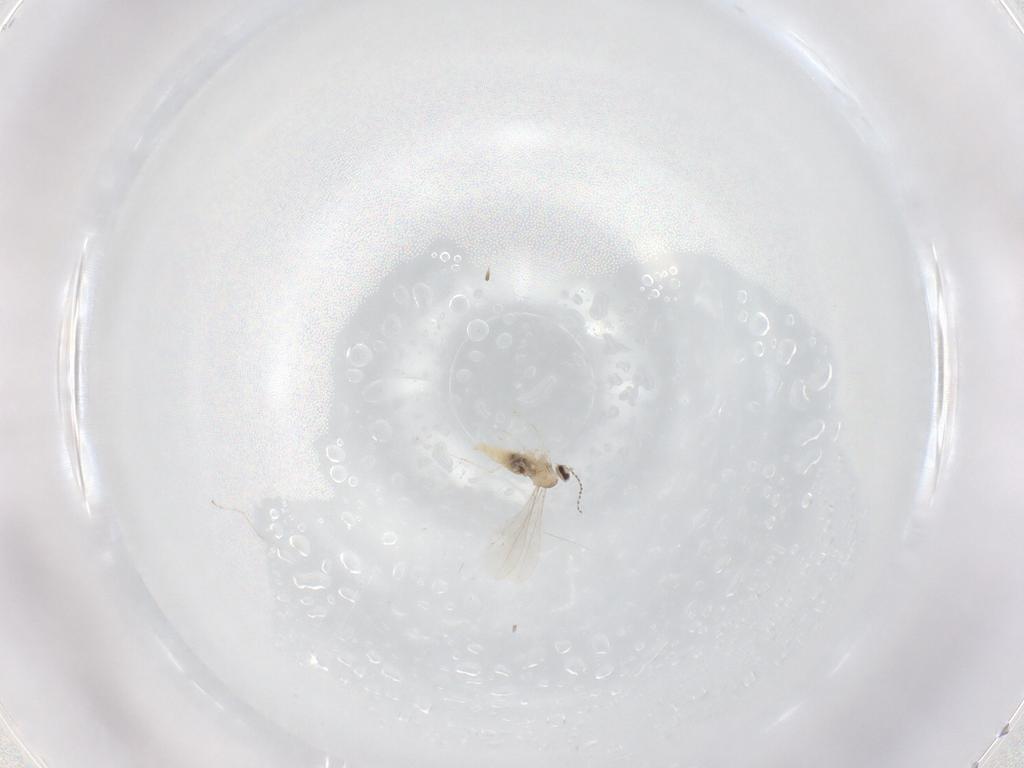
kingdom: Animalia
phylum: Arthropoda
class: Insecta
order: Diptera
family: Cecidomyiidae
